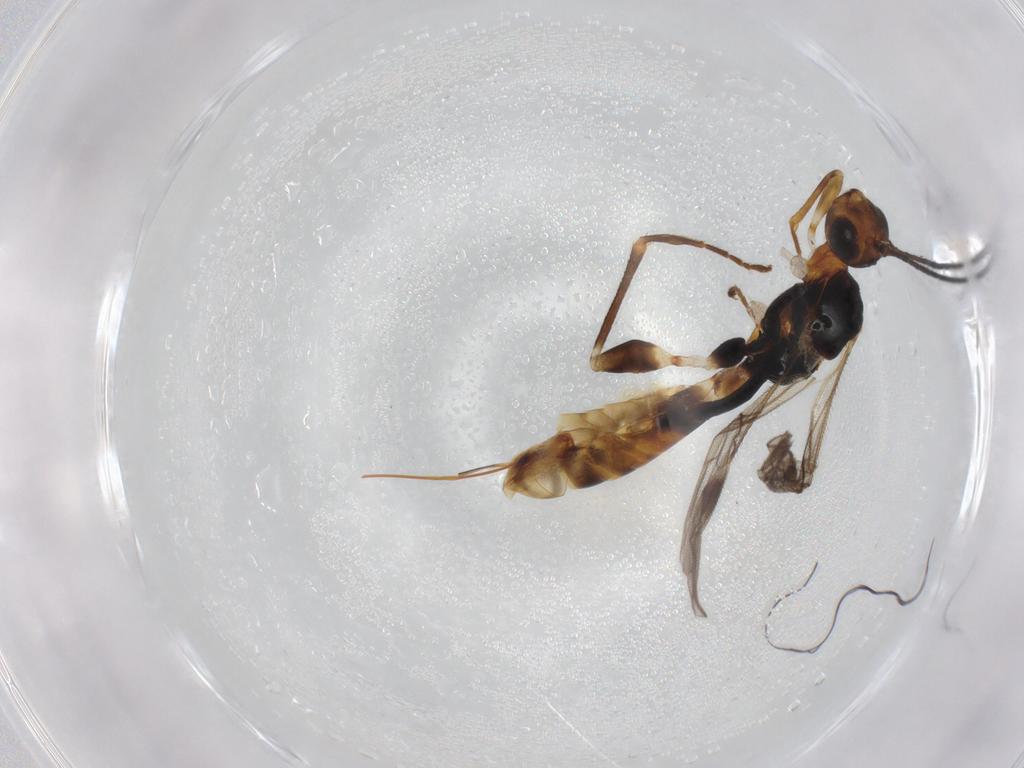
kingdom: Animalia
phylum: Arthropoda
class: Insecta
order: Hymenoptera
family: Braconidae
